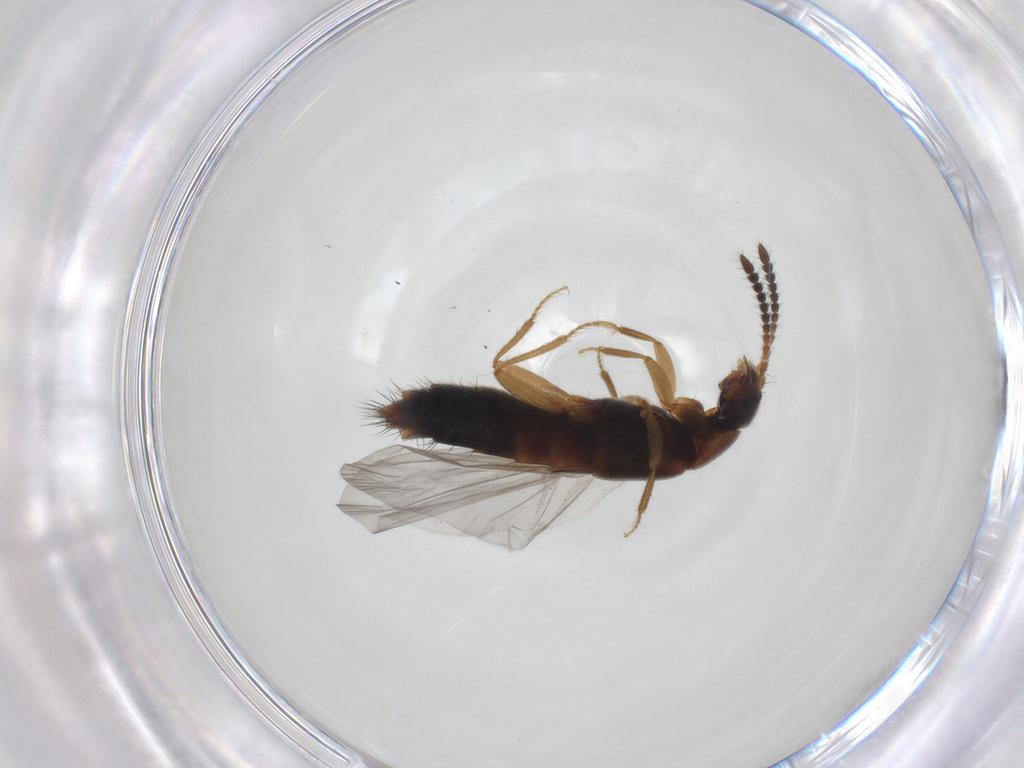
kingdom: Animalia
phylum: Arthropoda
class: Insecta
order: Coleoptera
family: Staphylinidae
